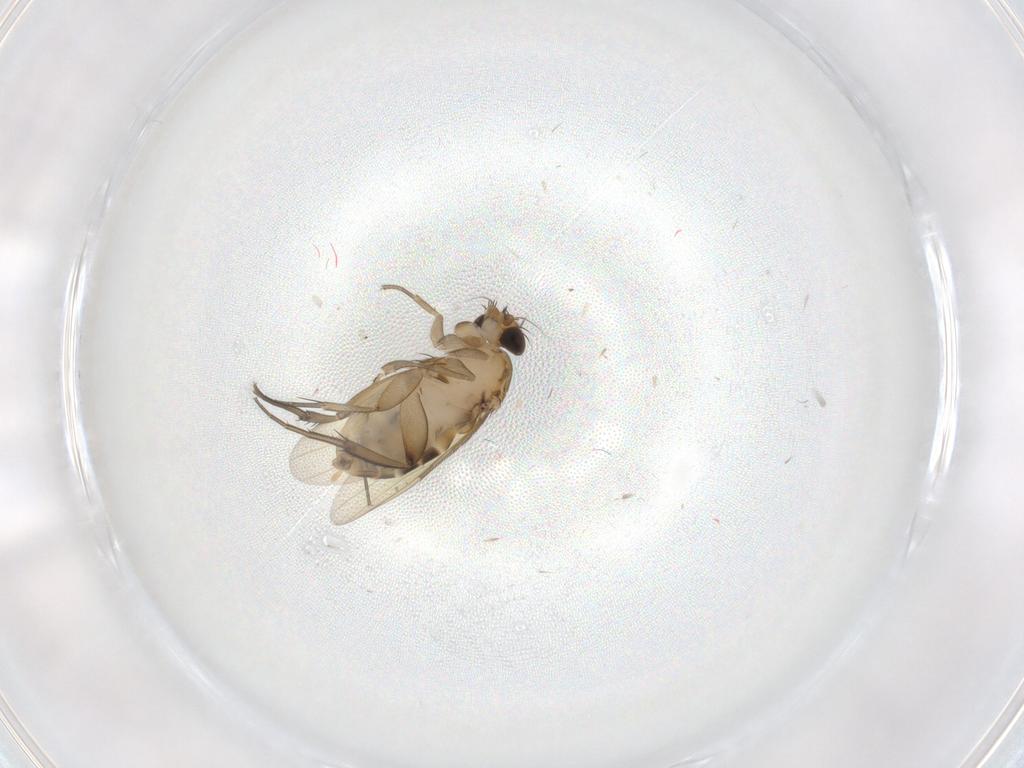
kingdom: Animalia
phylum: Arthropoda
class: Insecta
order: Diptera
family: Phoridae
